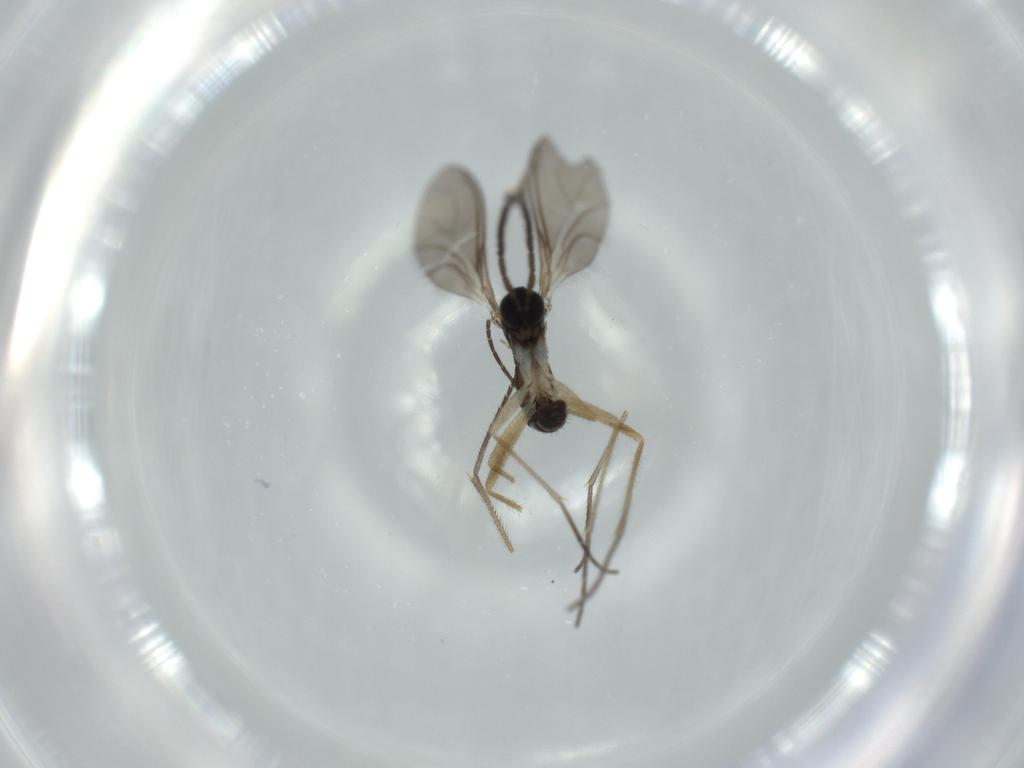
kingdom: Animalia
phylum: Arthropoda
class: Insecta
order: Diptera
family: Sciaridae
